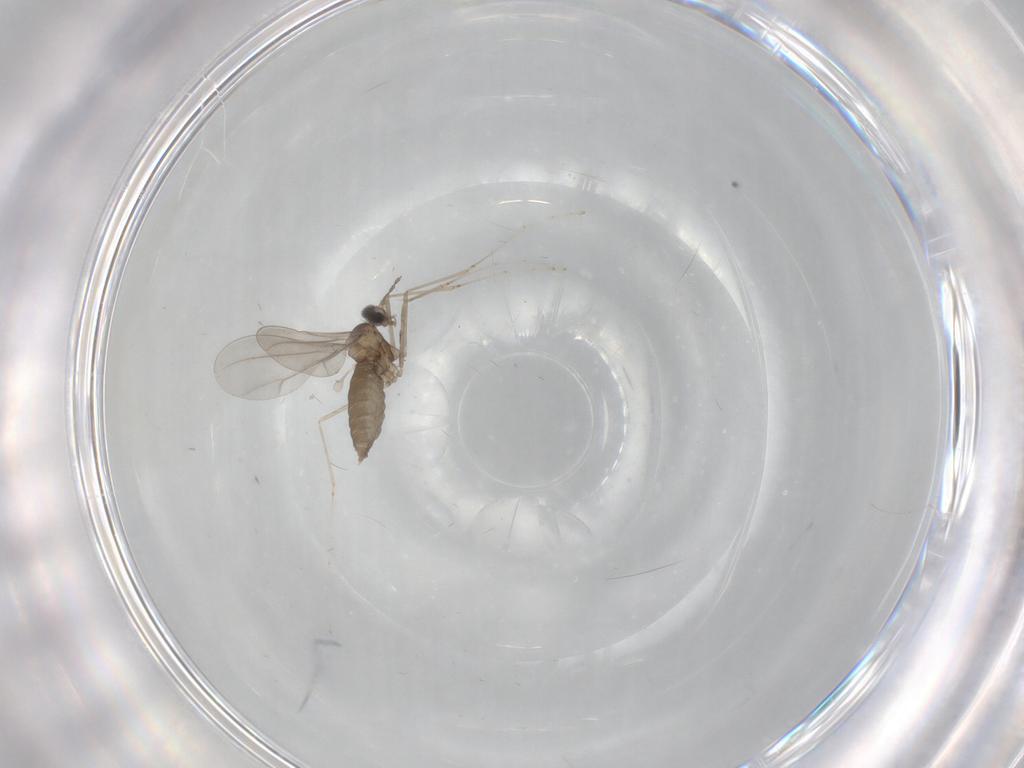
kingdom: Animalia
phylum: Arthropoda
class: Insecta
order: Diptera
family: Cecidomyiidae
